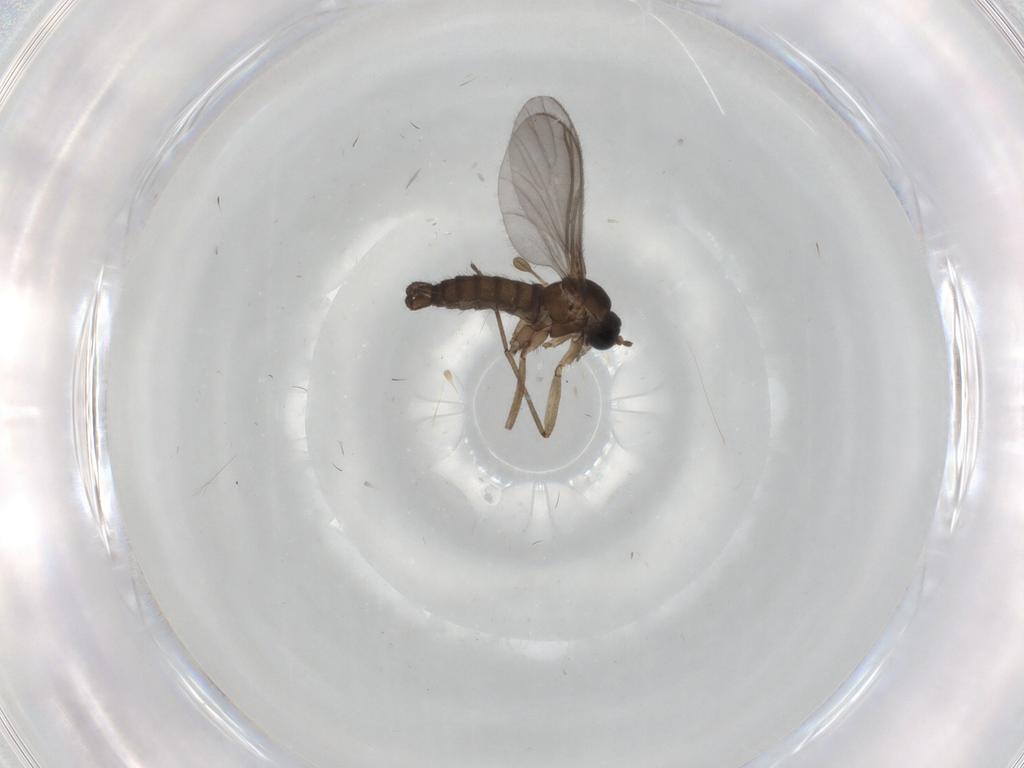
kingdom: Animalia
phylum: Arthropoda
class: Insecta
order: Diptera
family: Sciaridae
